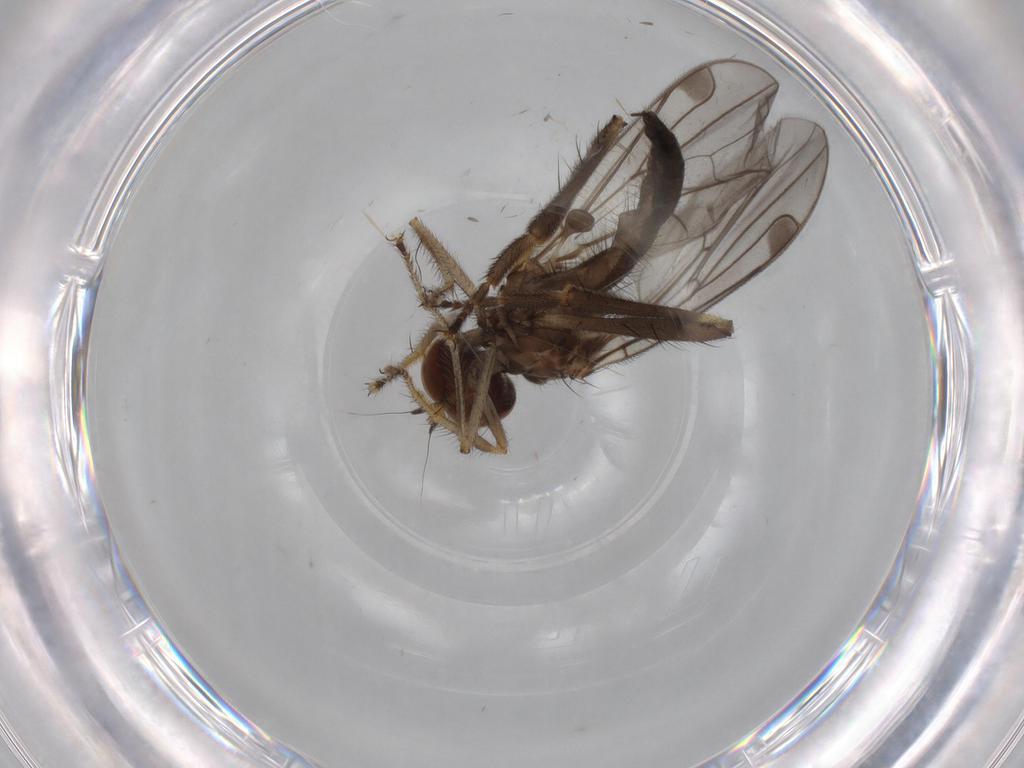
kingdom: Animalia
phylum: Arthropoda
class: Insecta
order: Diptera
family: Hybotidae
